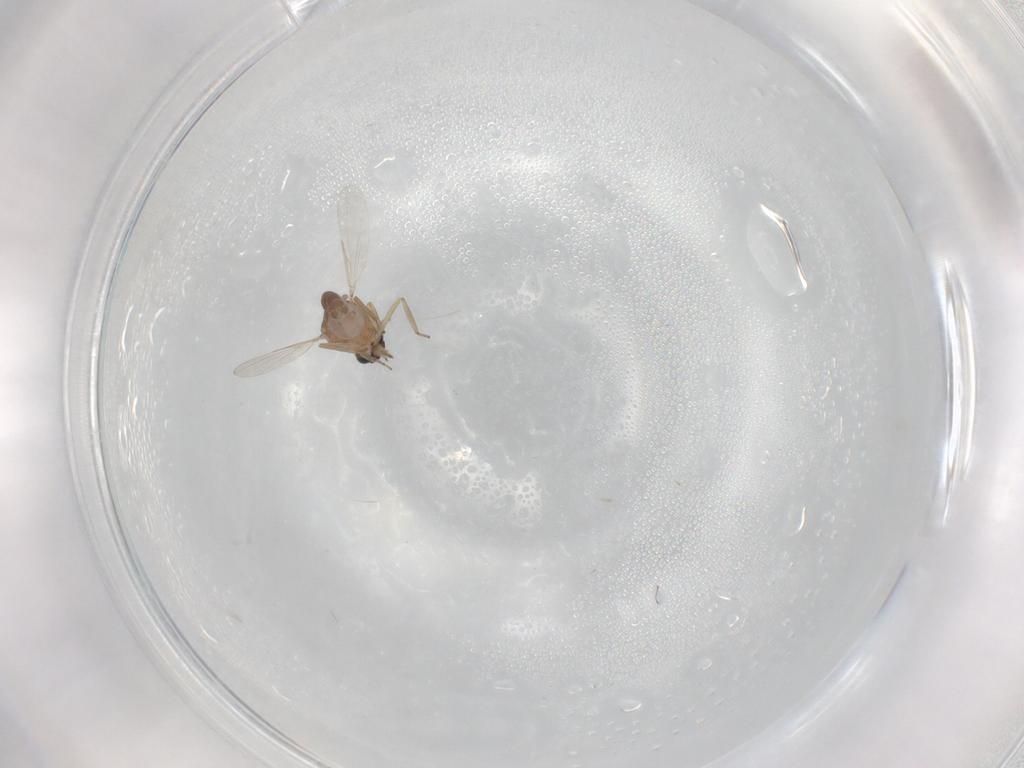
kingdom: Animalia
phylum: Arthropoda
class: Insecta
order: Diptera
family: Ceratopogonidae
